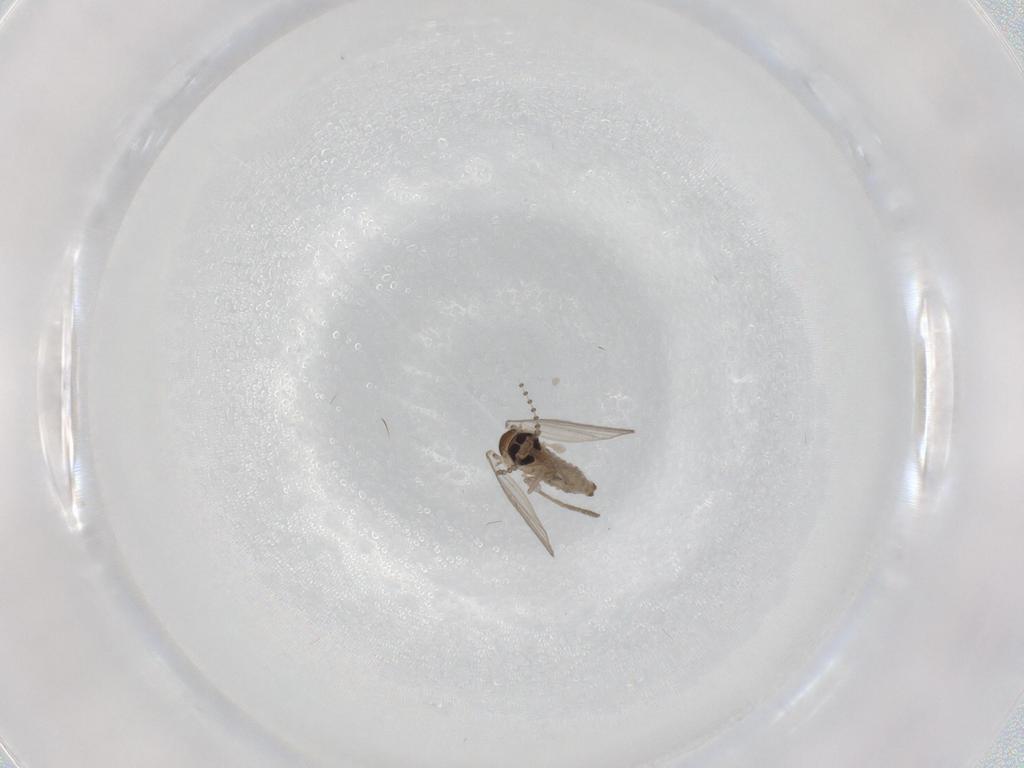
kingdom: Animalia
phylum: Arthropoda
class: Insecta
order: Diptera
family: Psychodidae
